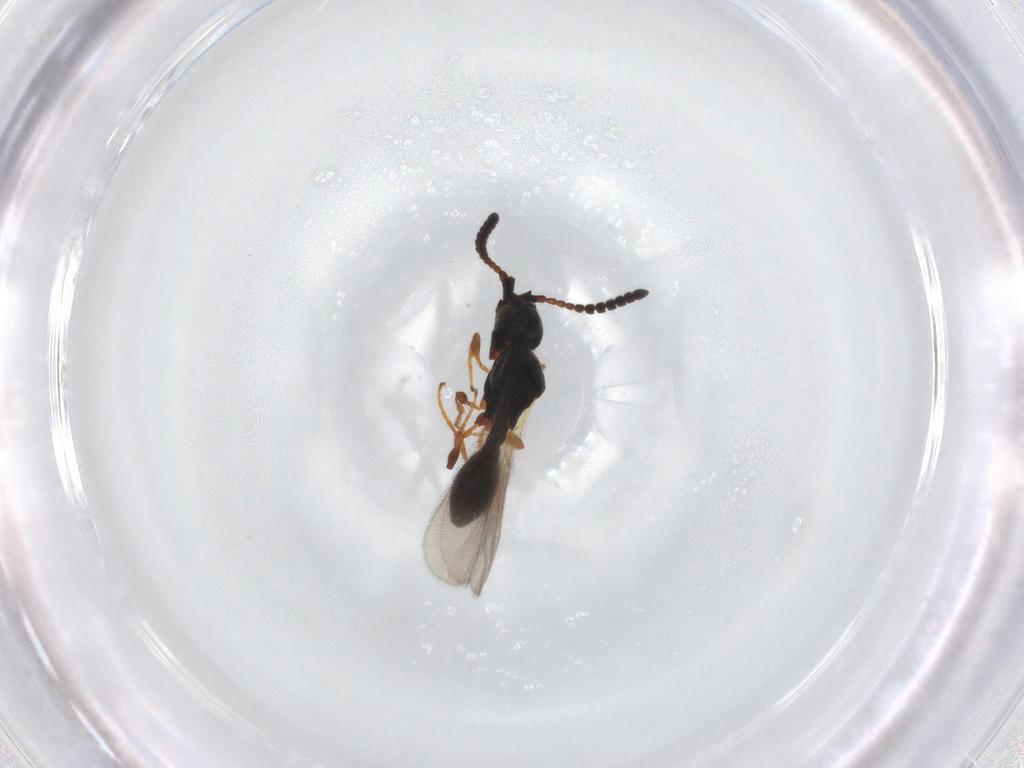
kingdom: Animalia
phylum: Arthropoda
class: Insecta
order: Hymenoptera
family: Diapriidae
